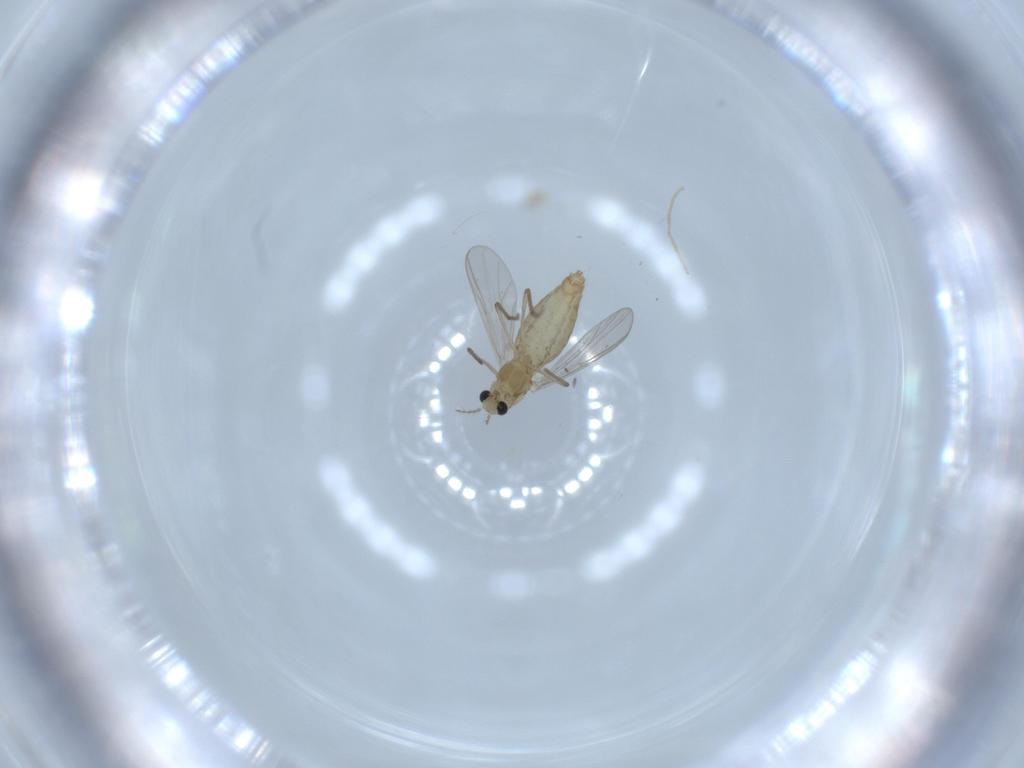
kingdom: Animalia
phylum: Arthropoda
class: Insecta
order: Diptera
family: Chironomidae
